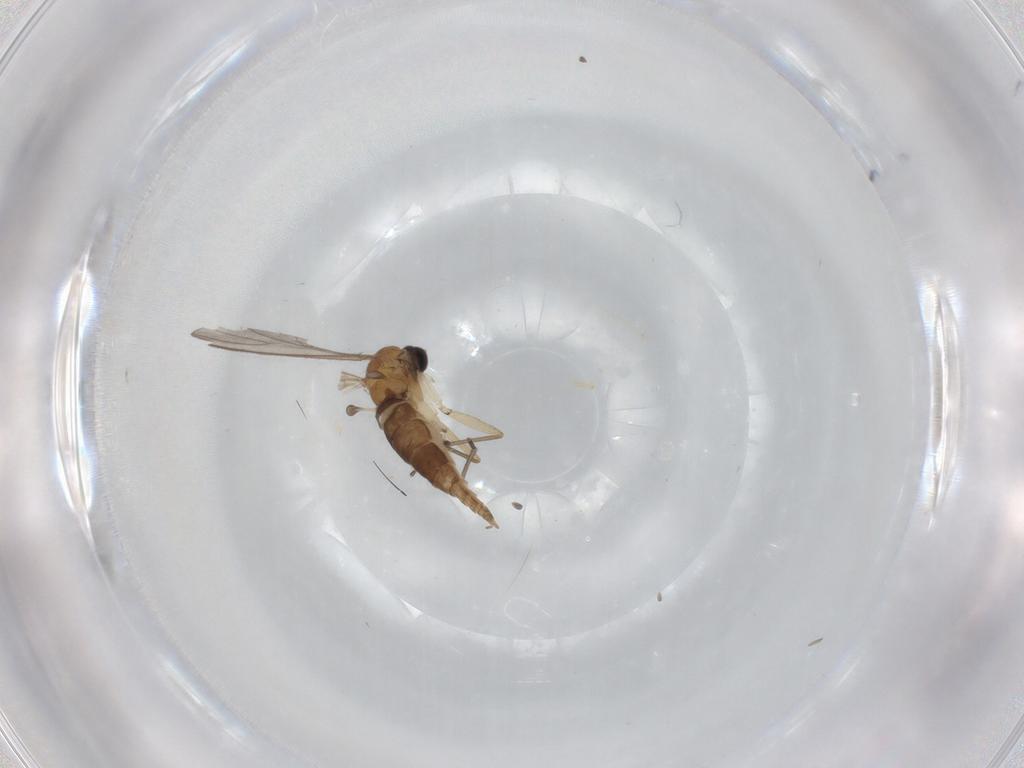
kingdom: Animalia
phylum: Arthropoda
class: Insecta
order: Diptera
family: Sciaridae
